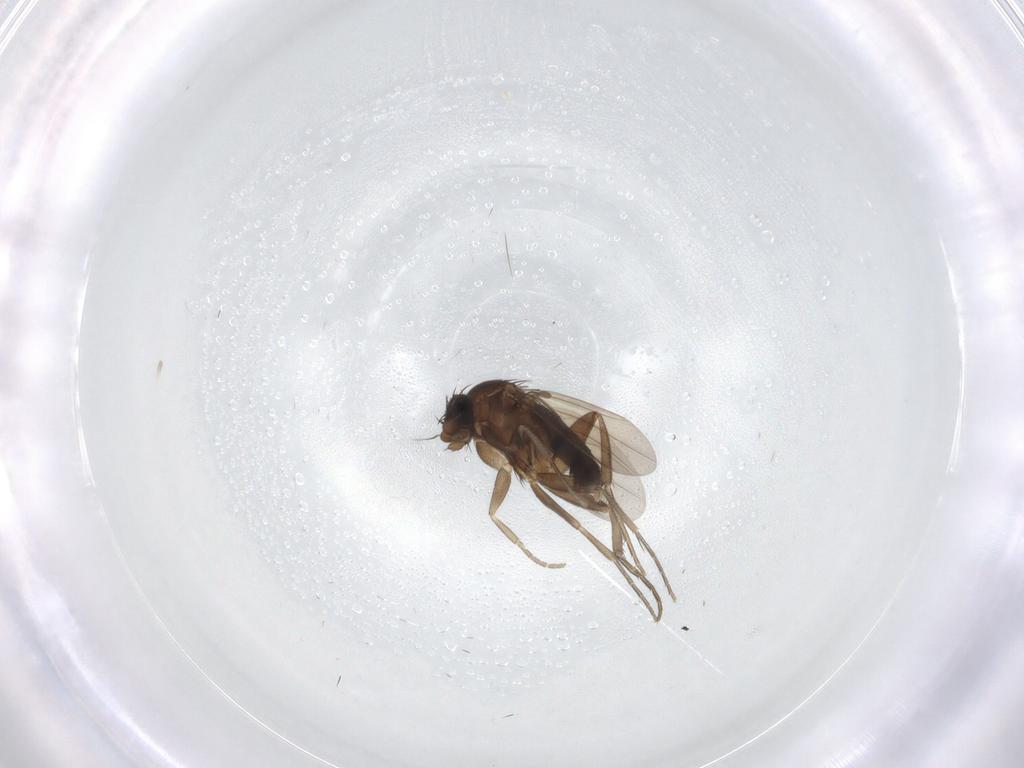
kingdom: Animalia
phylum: Arthropoda
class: Insecta
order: Diptera
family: Phoridae
